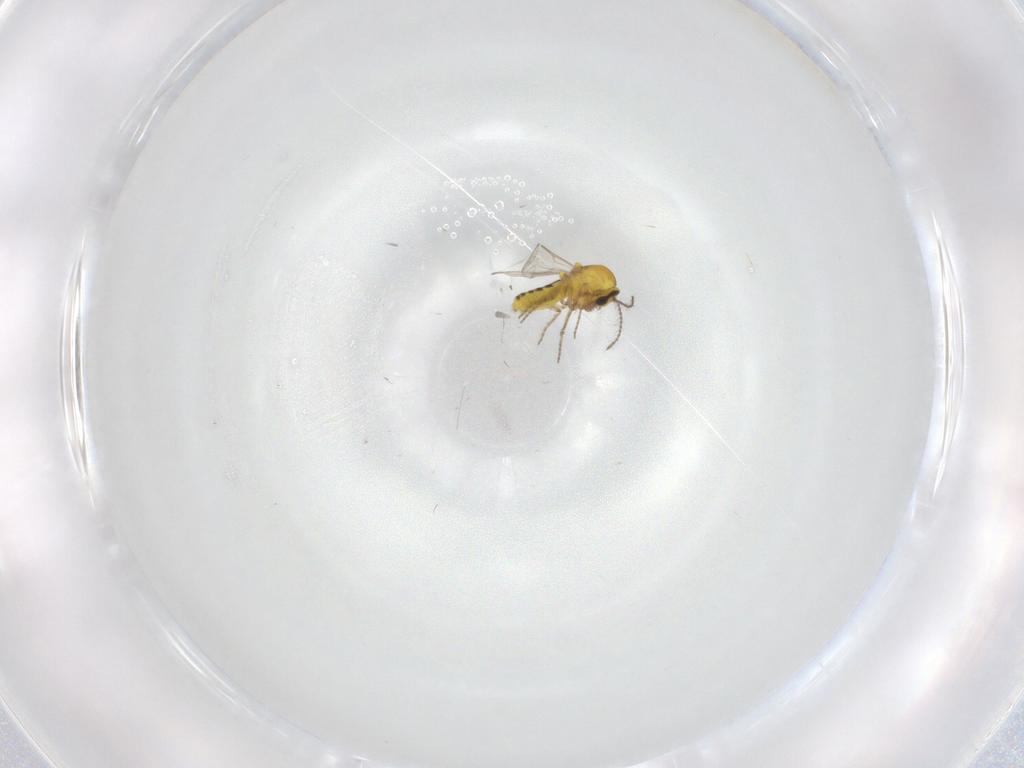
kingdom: Animalia
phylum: Arthropoda
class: Insecta
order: Diptera
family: Ceratopogonidae
